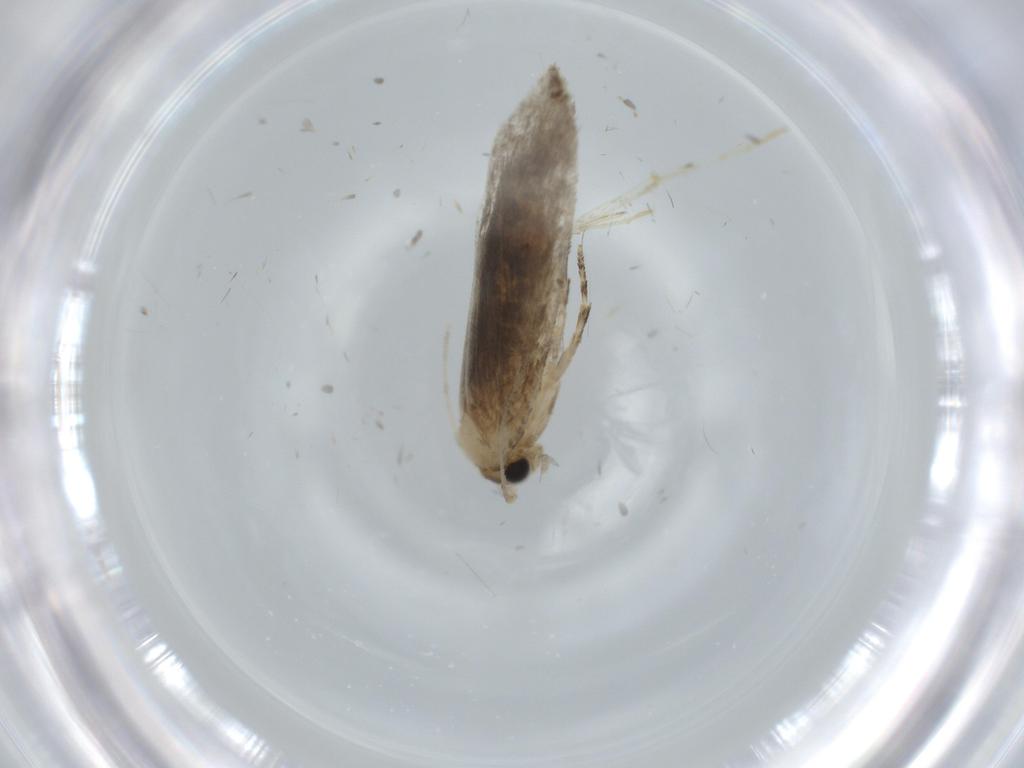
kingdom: Animalia
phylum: Arthropoda
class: Insecta
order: Lepidoptera
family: Tineidae
